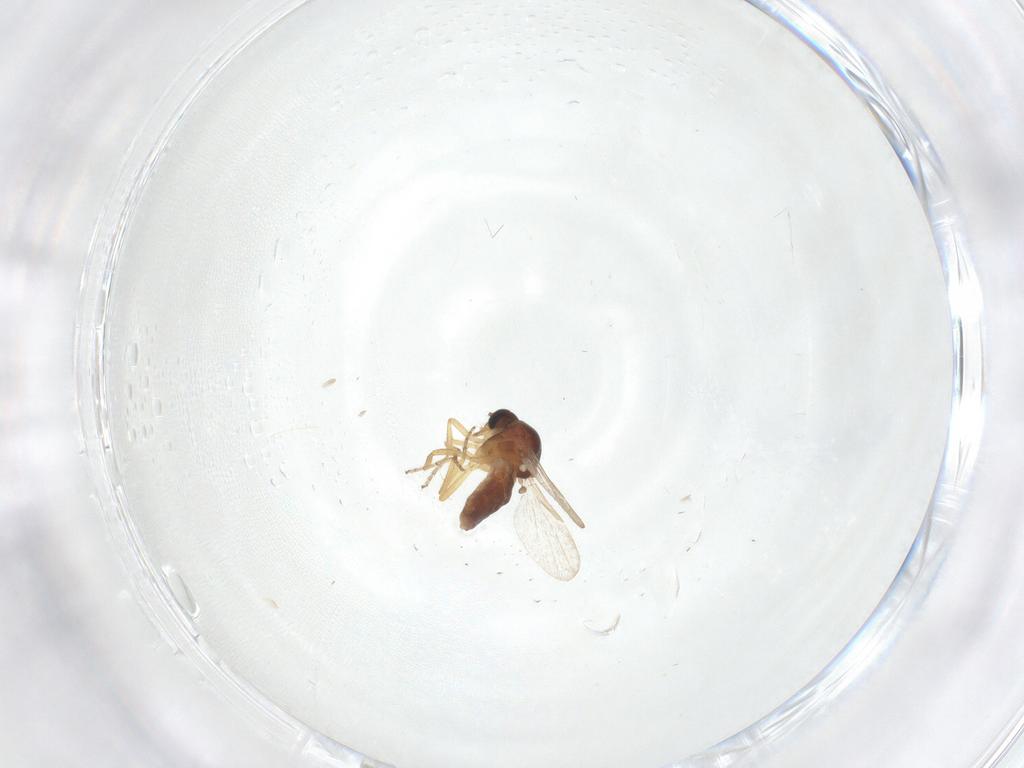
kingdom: Animalia
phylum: Arthropoda
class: Insecta
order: Diptera
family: Ceratopogonidae
